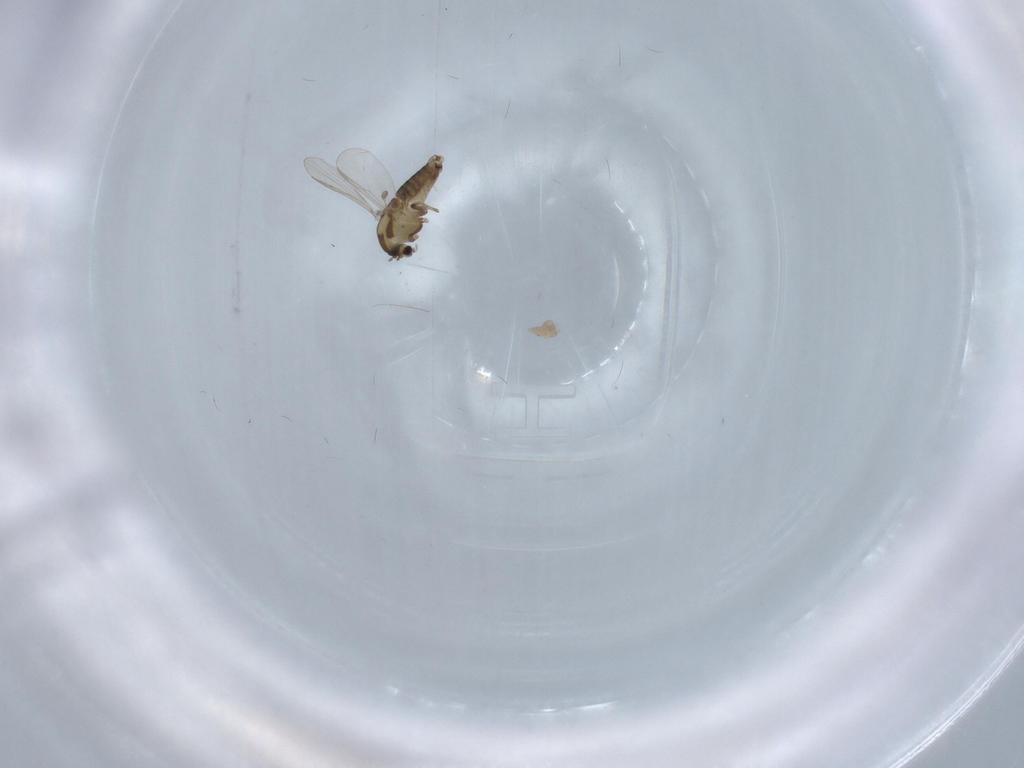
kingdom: Animalia
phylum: Arthropoda
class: Insecta
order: Diptera
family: Chironomidae
